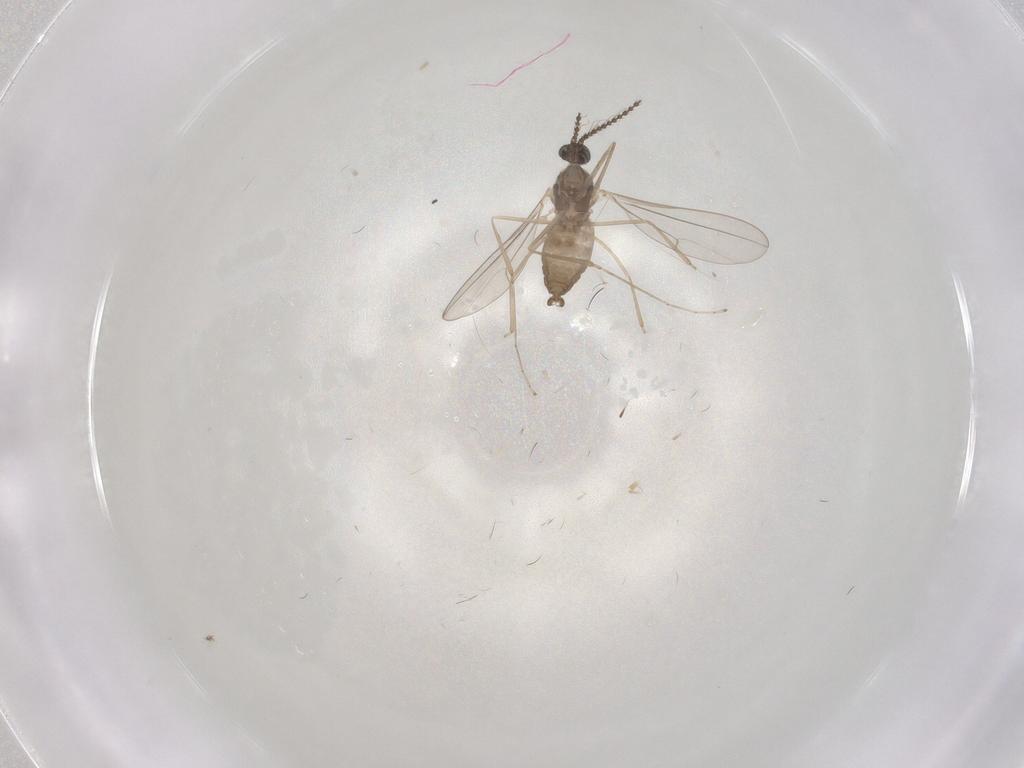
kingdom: Animalia
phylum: Arthropoda
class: Insecta
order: Diptera
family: Cecidomyiidae
